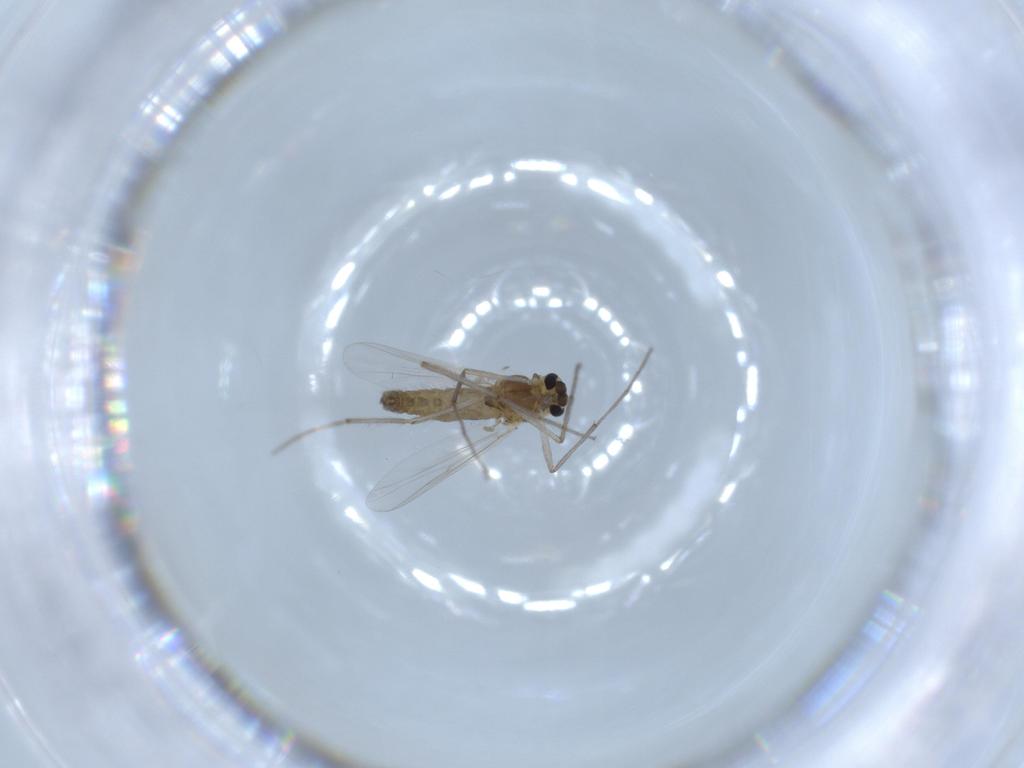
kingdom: Animalia
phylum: Arthropoda
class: Insecta
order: Diptera
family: Chironomidae
